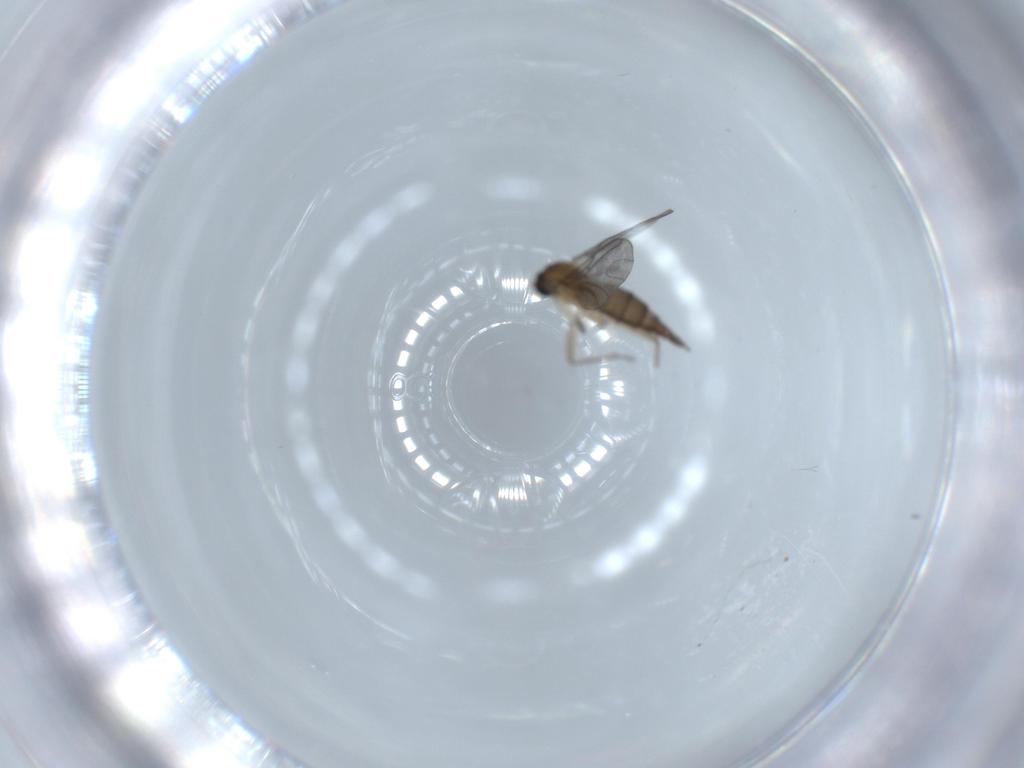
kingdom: Animalia
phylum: Arthropoda
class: Insecta
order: Diptera
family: Sciaridae
